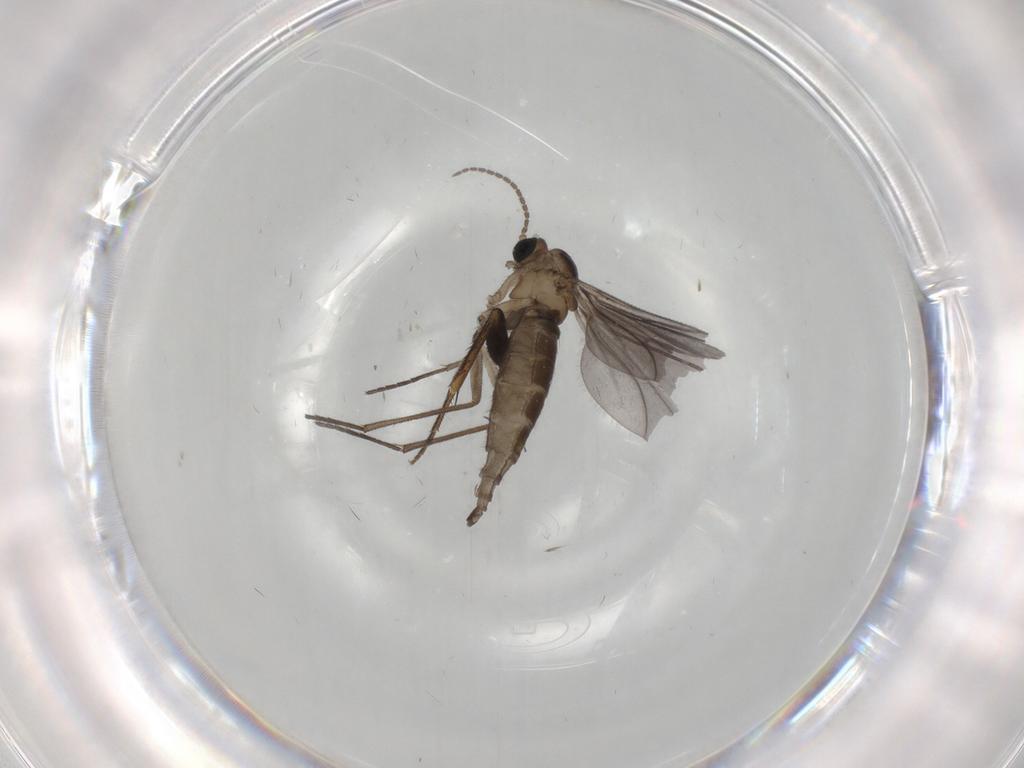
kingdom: Animalia
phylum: Arthropoda
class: Insecta
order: Diptera
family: Sciaridae
